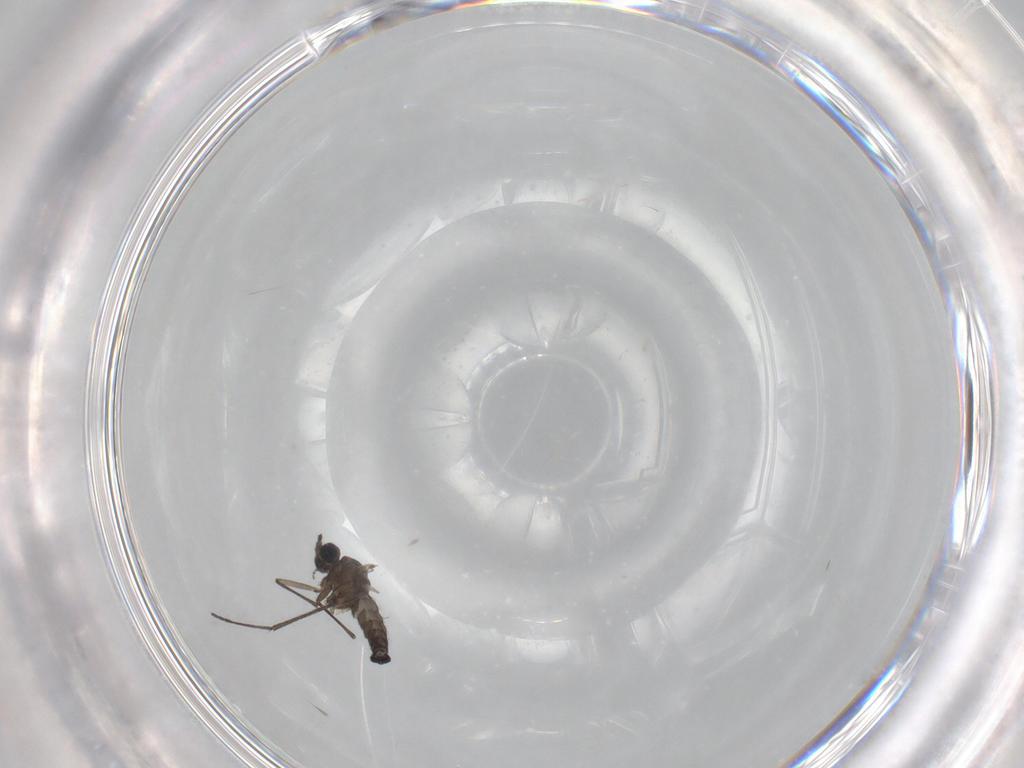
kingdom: Animalia
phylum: Arthropoda
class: Insecta
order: Diptera
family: Sciaridae
